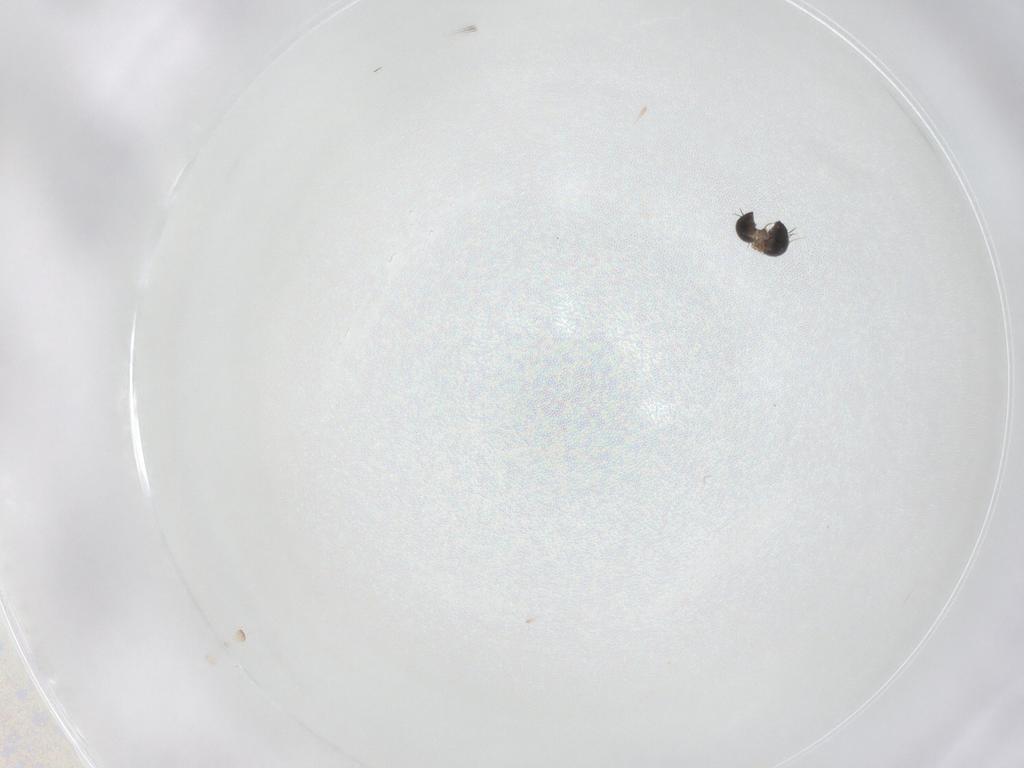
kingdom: Animalia
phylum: Arthropoda
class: Insecta
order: Diptera
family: Phoridae
